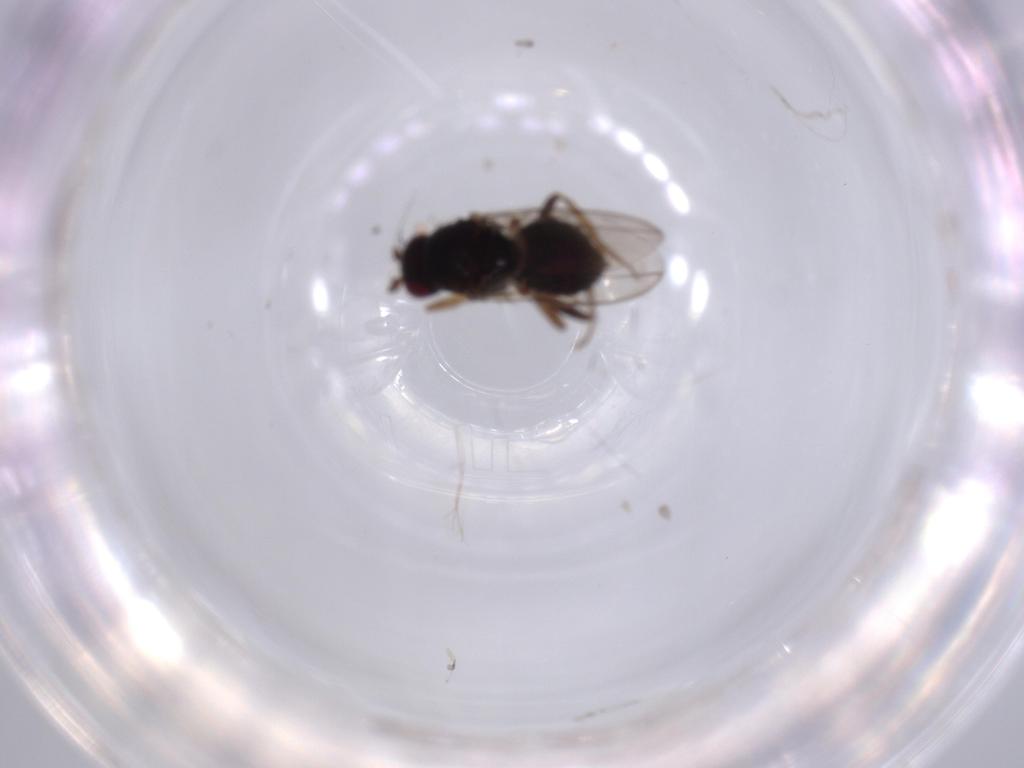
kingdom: Animalia
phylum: Arthropoda
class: Insecta
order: Diptera
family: Sphaeroceridae
